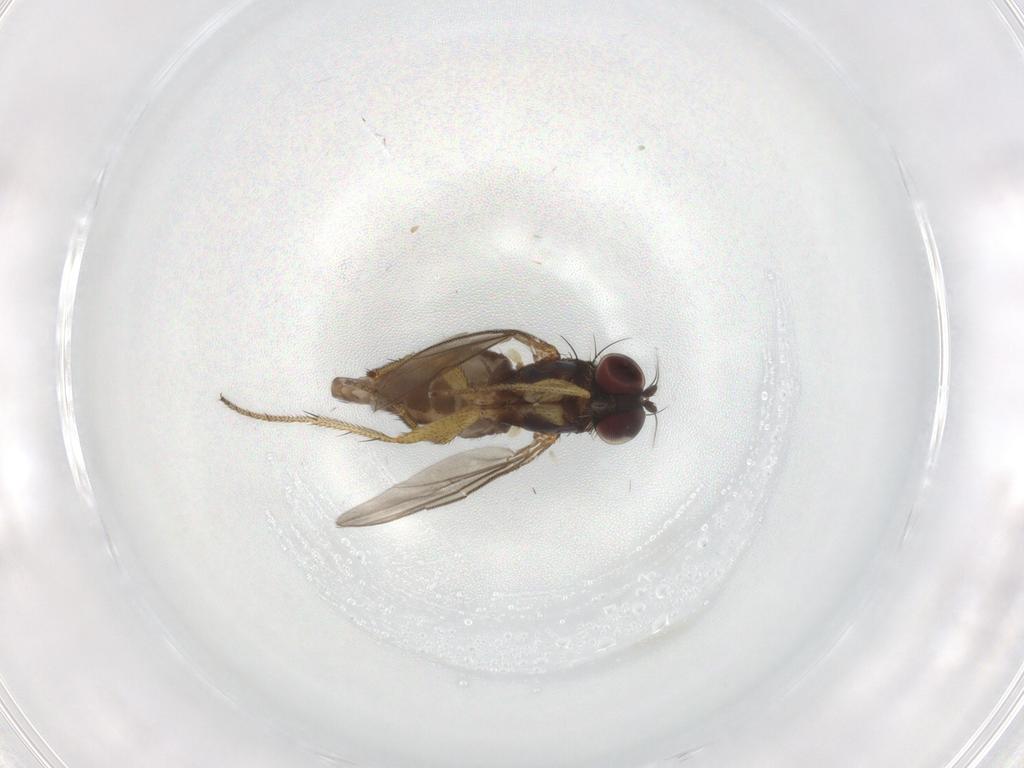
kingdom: Animalia
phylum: Arthropoda
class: Insecta
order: Diptera
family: Chironomidae
